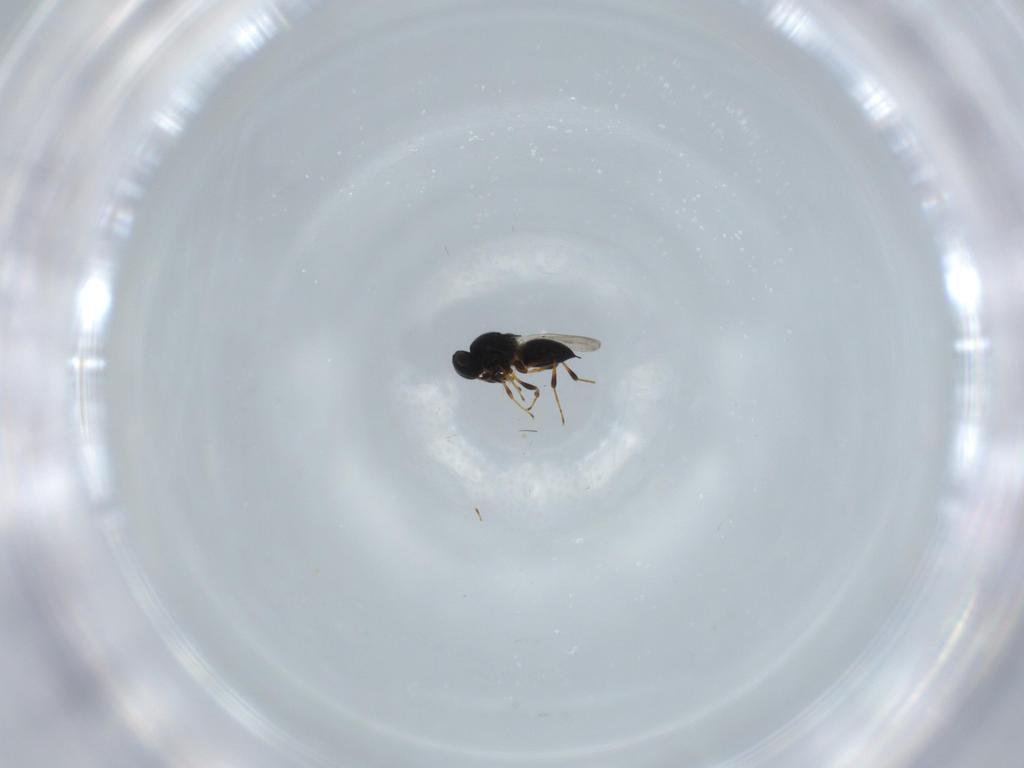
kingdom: Animalia
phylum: Arthropoda
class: Insecta
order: Hymenoptera
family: Platygastridae
